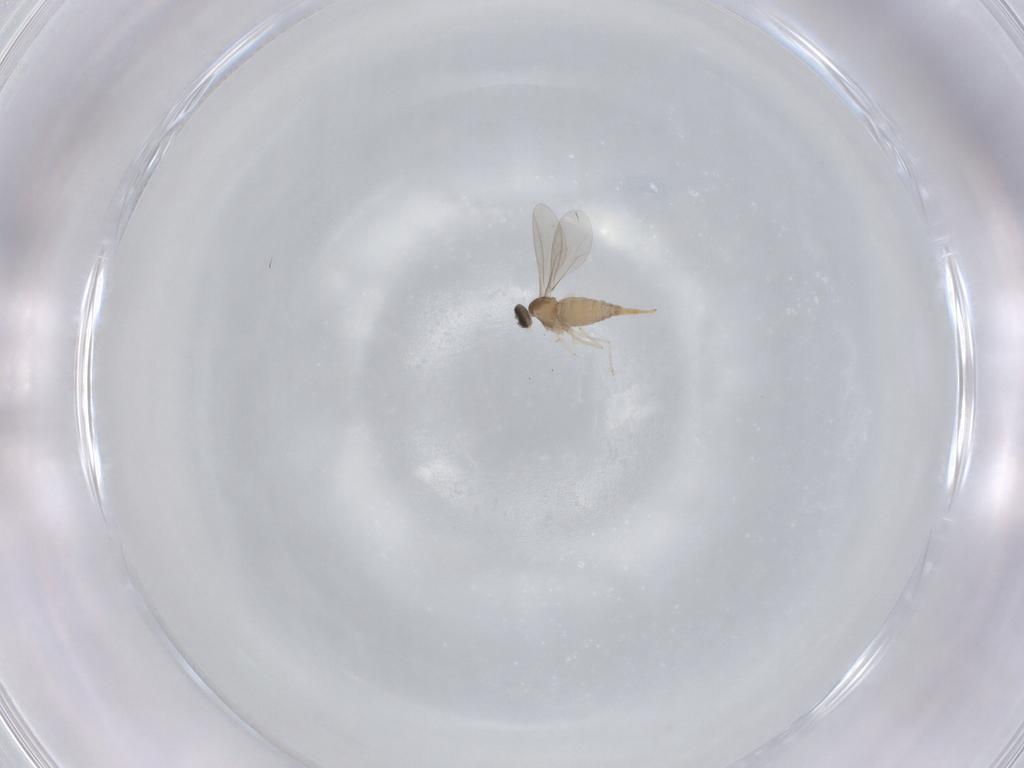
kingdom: Animalia
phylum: Arthropoda
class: Insecta
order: Diptera
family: Cecidomyiidae
